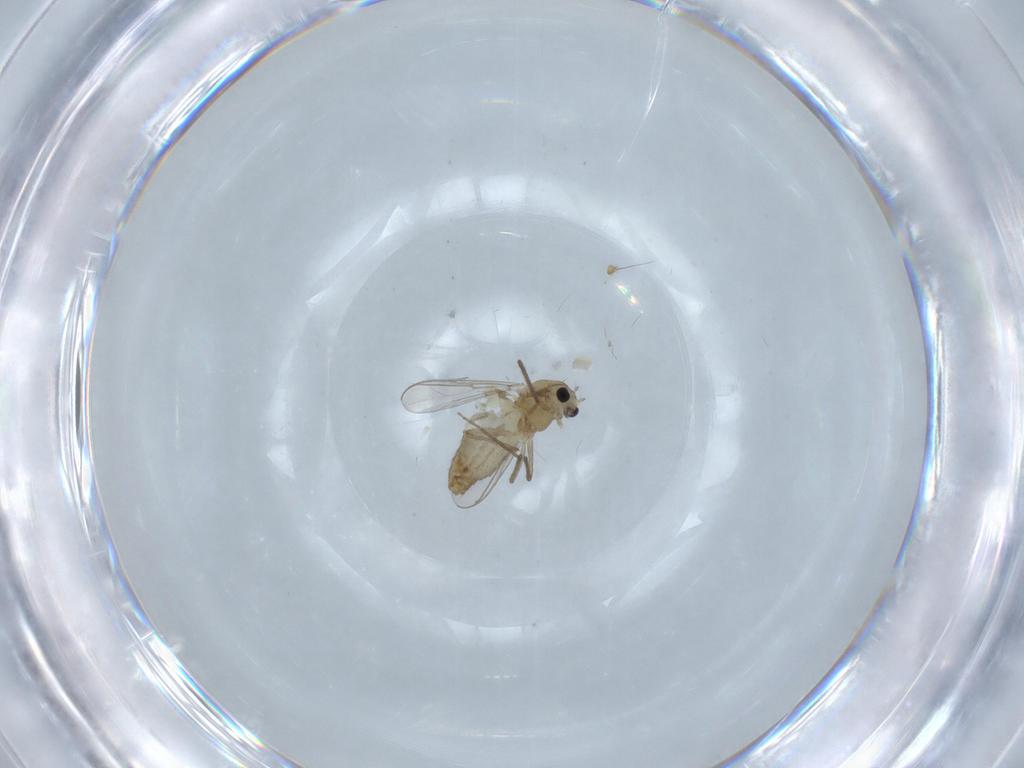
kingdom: Animalia
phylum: Arthropoda
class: Insecta
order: Diptera
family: Chironomidae
